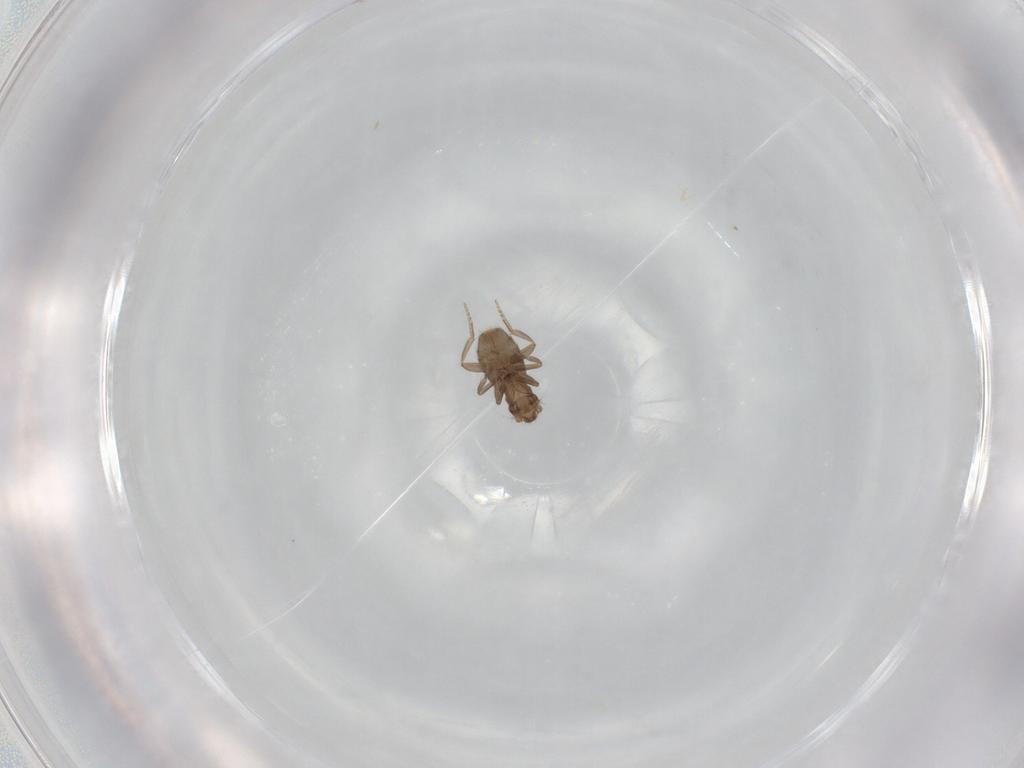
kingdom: Animalia
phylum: Arthropoda
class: Insecta
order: Diptera
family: Phoridae
